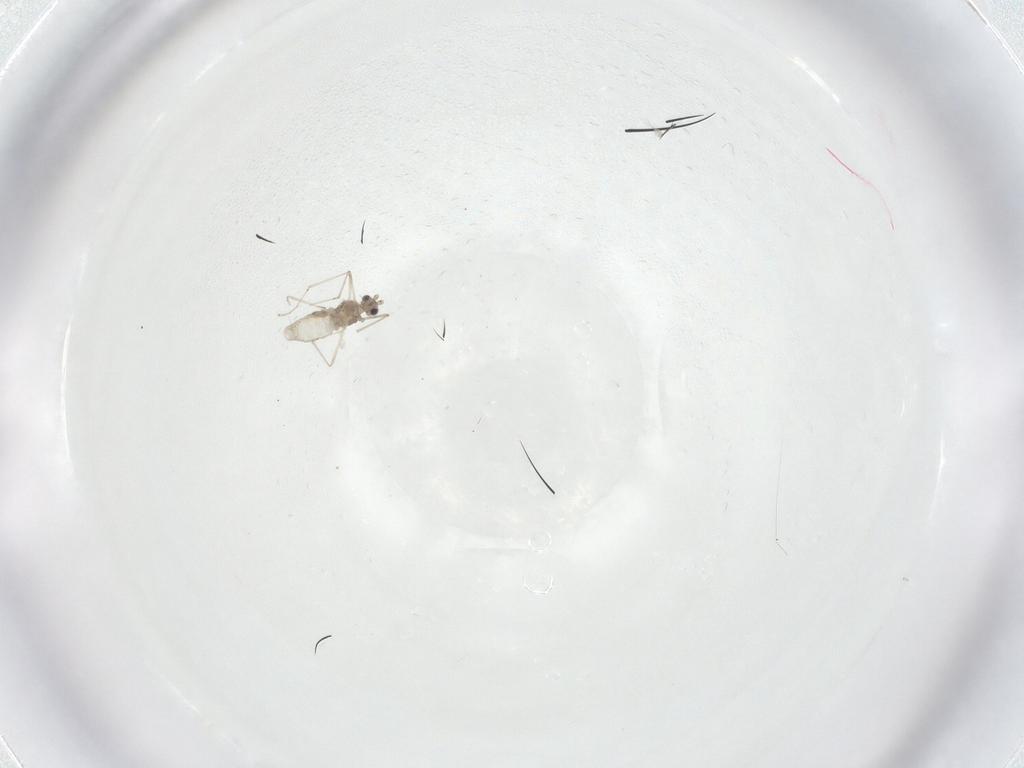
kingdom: Animalia
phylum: Arthropoda
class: Insecta
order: Diptera
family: Cecidomyiidae
